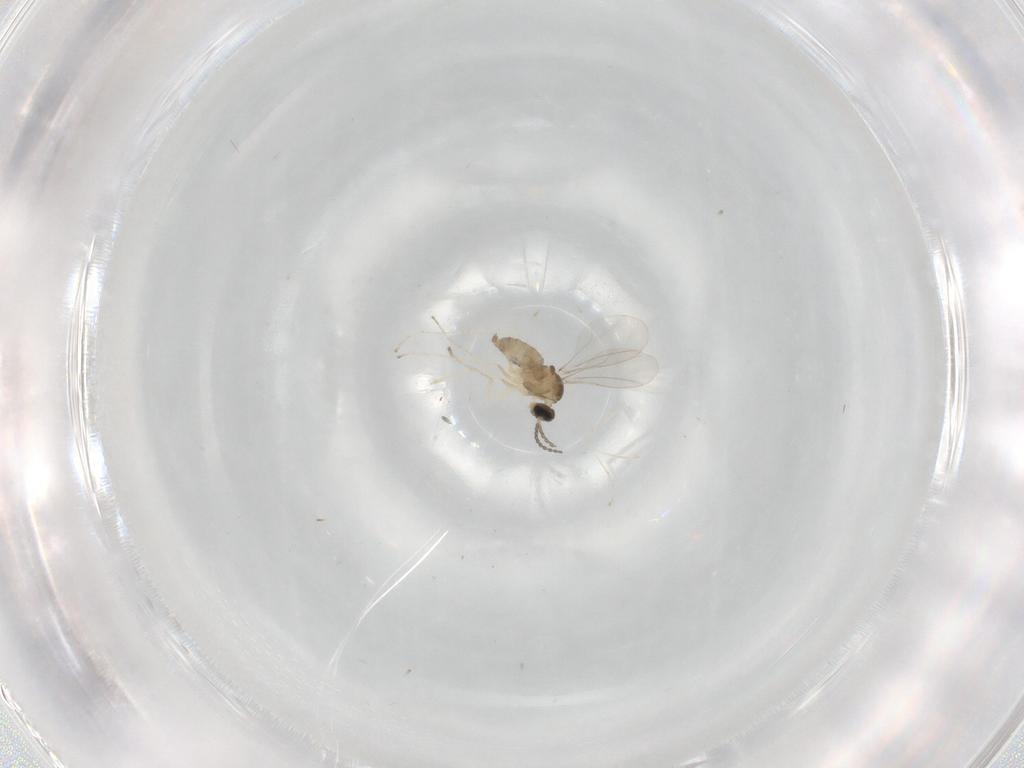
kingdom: Animalia
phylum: Arthropoda
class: Insecta
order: Diptera
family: Cecidomyiidae
